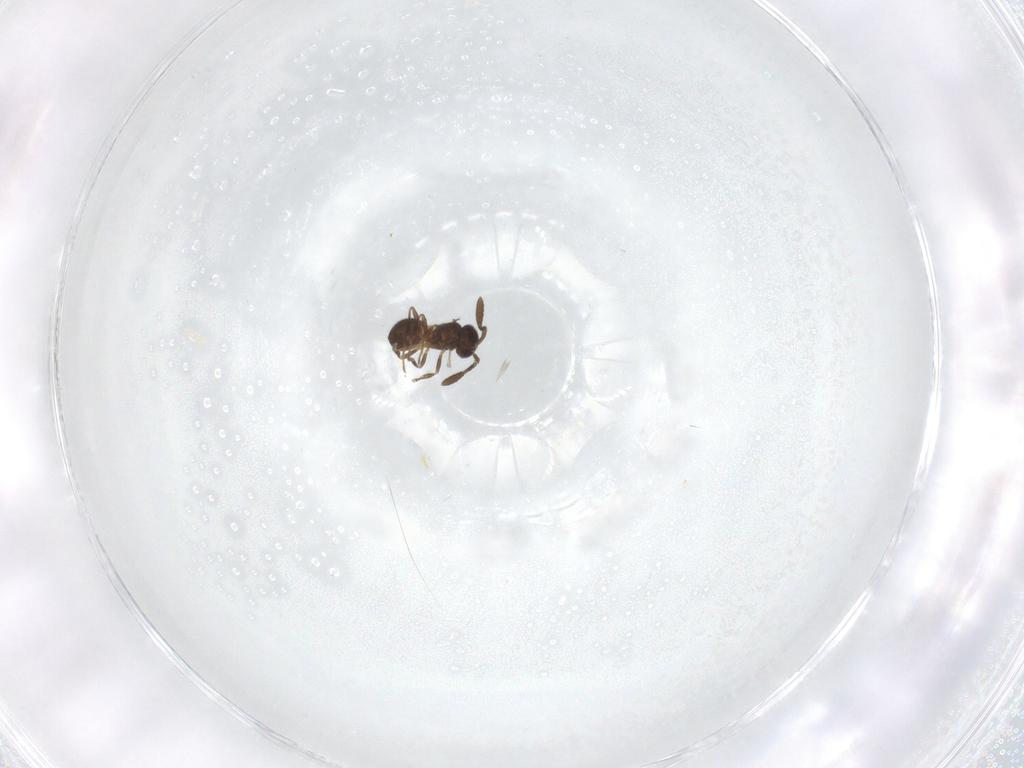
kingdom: Animalia
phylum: Arthropoda
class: Insecta
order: Hymenoptera
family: Scelionidae
